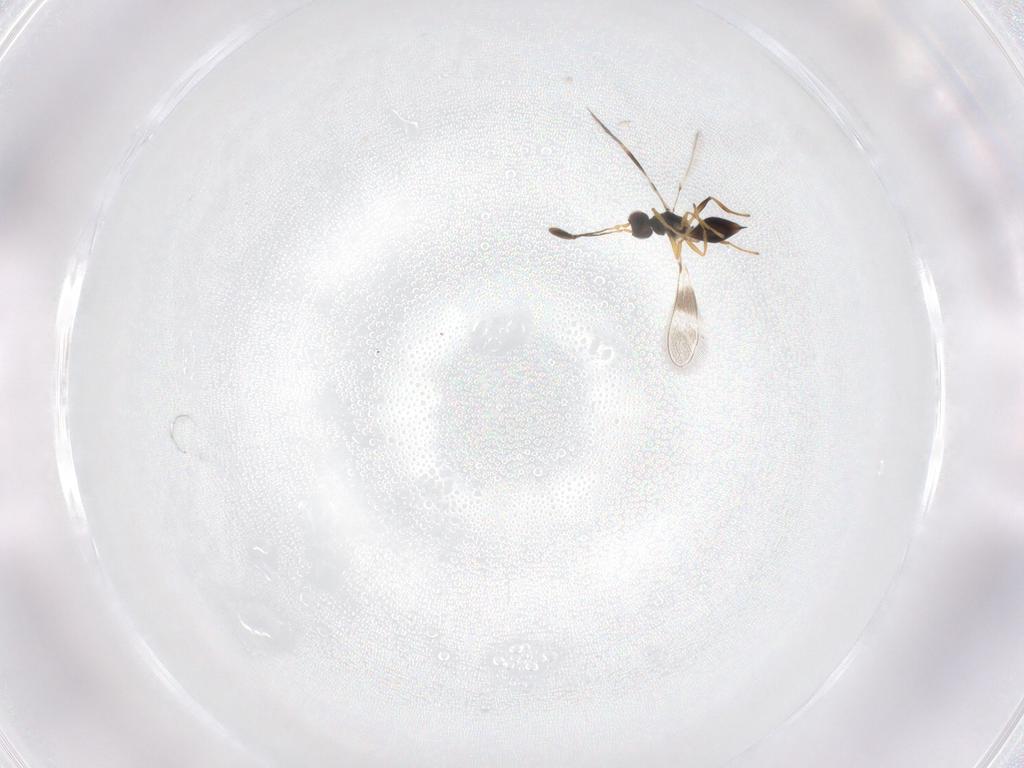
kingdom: Animalia
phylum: Arthropoda
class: Insecta
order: Hymenoptera
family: Mymaridae
